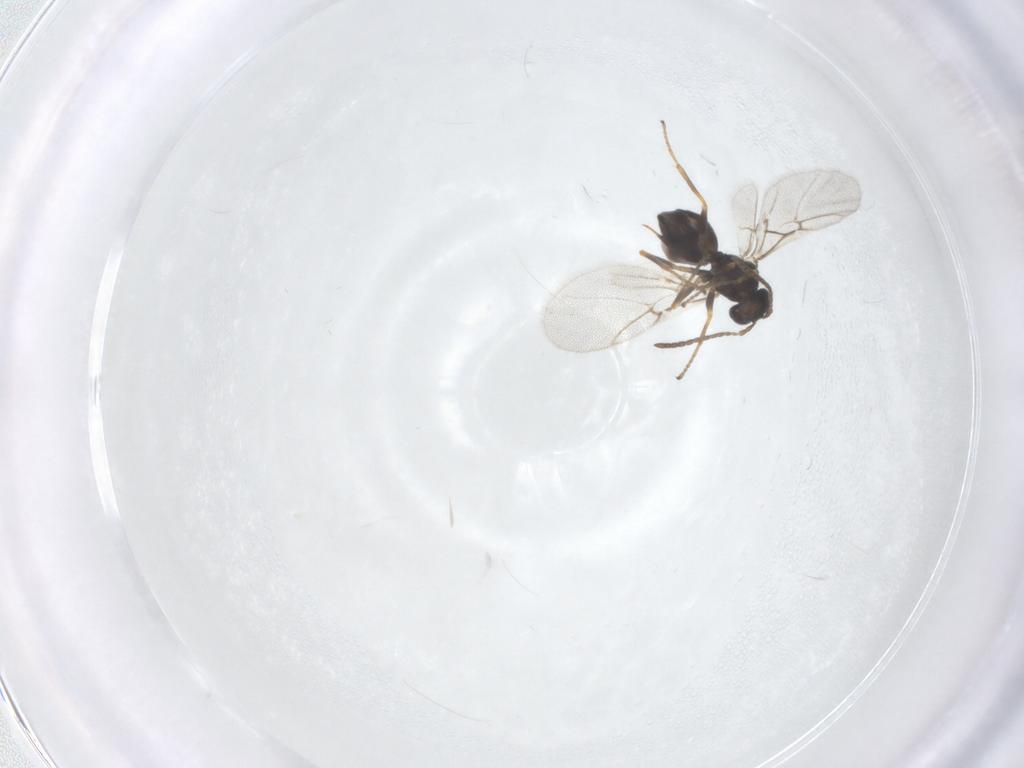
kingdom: Animalia
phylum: Arthropoda
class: Insecta
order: Hymenoptera
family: Cynipidae
